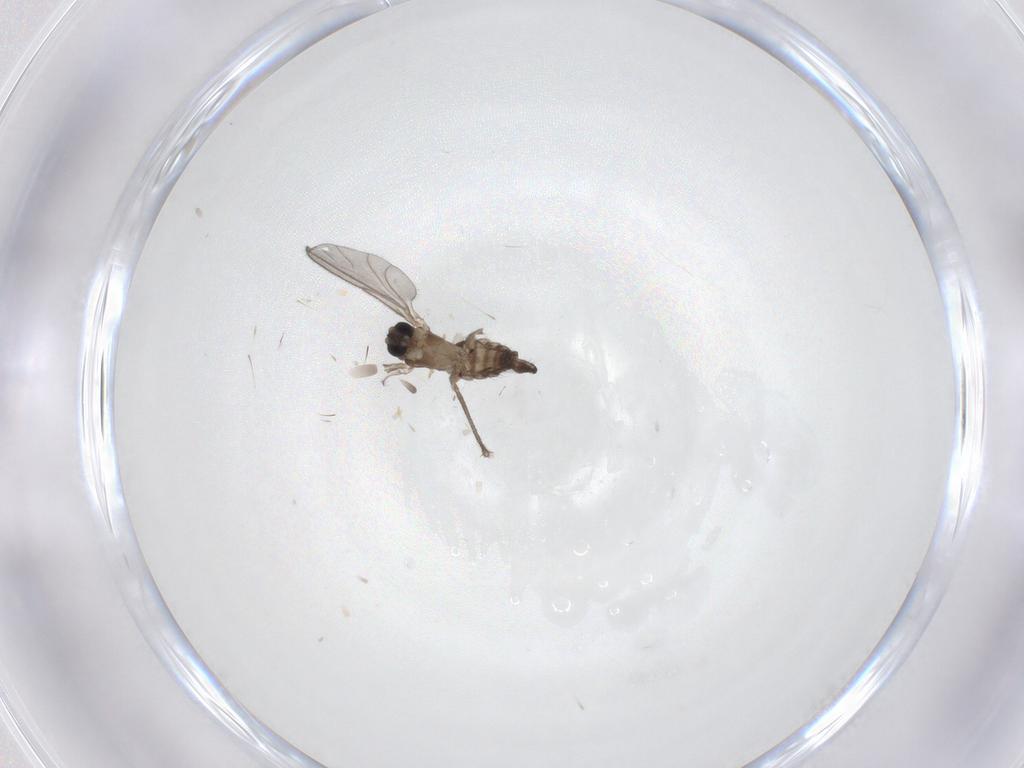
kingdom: Animalia
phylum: Arthropoda
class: Insecta
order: Diptera
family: Chironomidae
